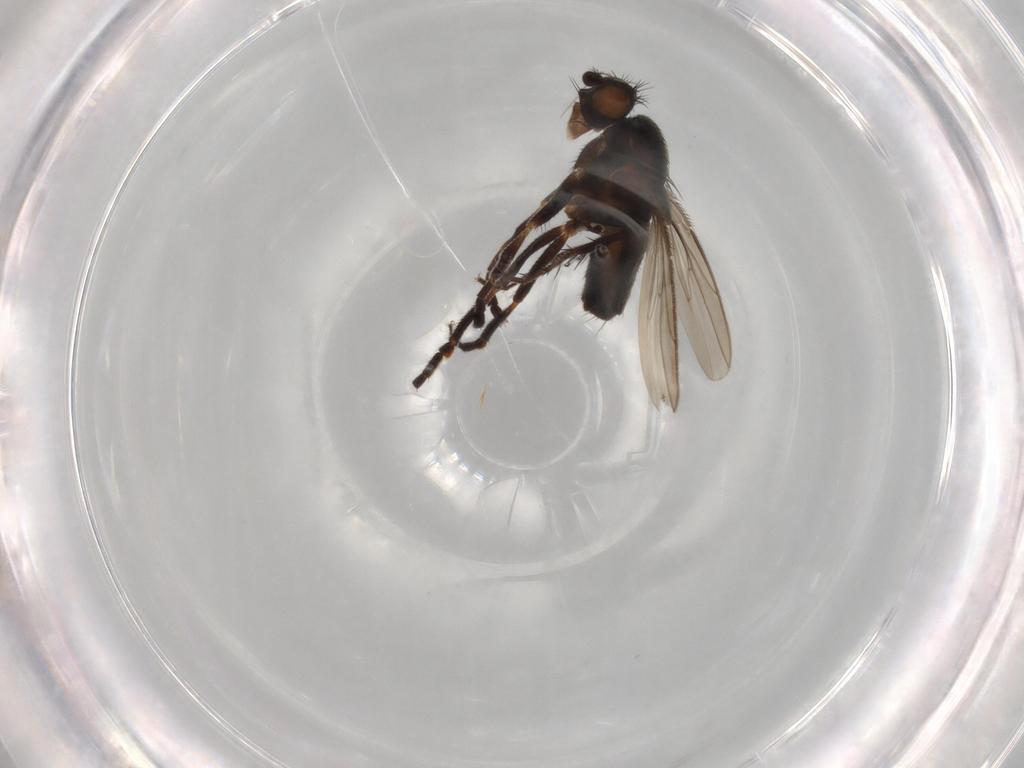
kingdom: Animalia
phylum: Arthropoda
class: Insecta
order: Diptera
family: Sphaeroceridae
